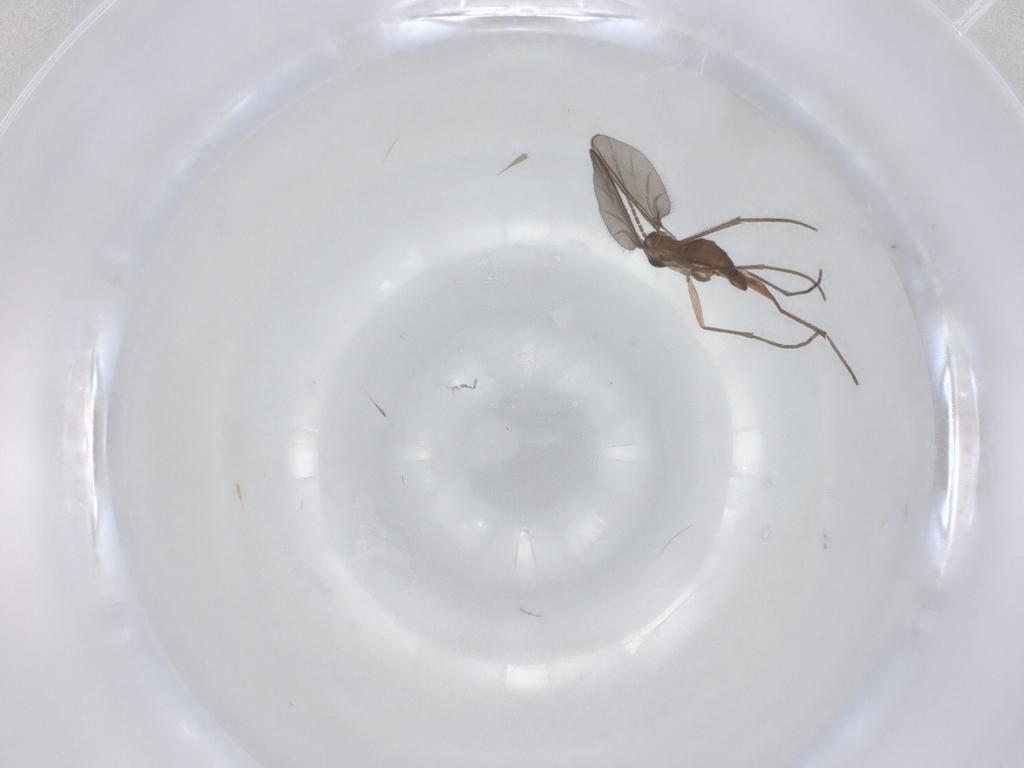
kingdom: Animalia
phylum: Arthropoda
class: Insecta
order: Diptera
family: Sciaridae
